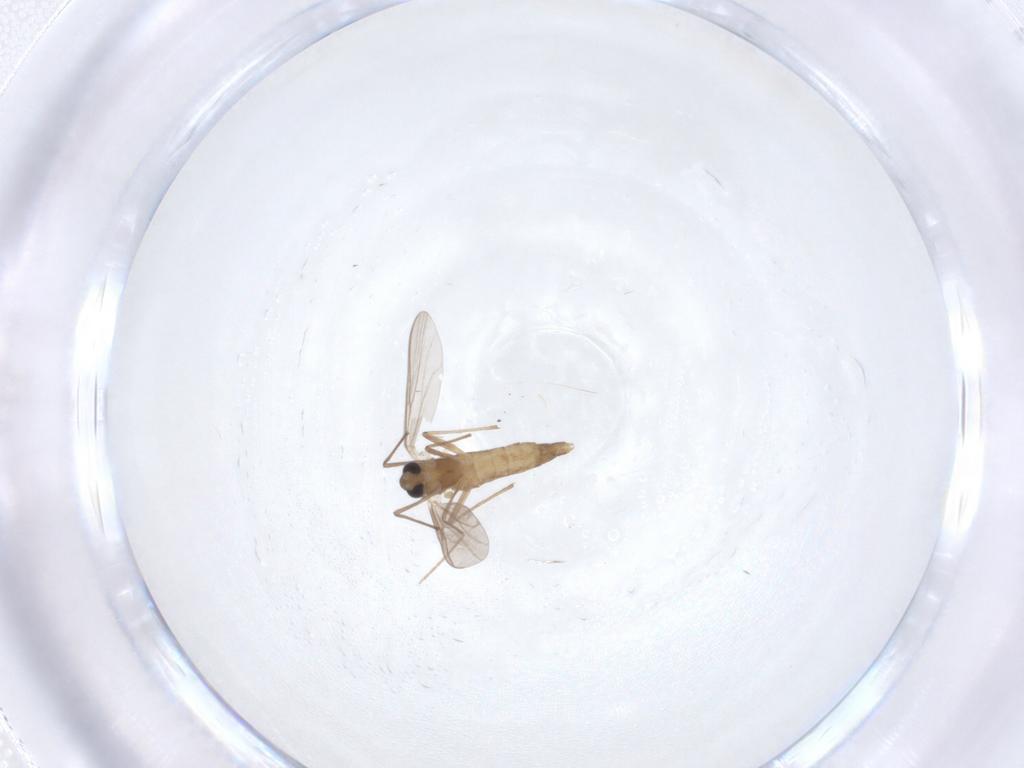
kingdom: Animalia
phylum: Arthropoda
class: Insecta
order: Diptera
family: Chironomidae
